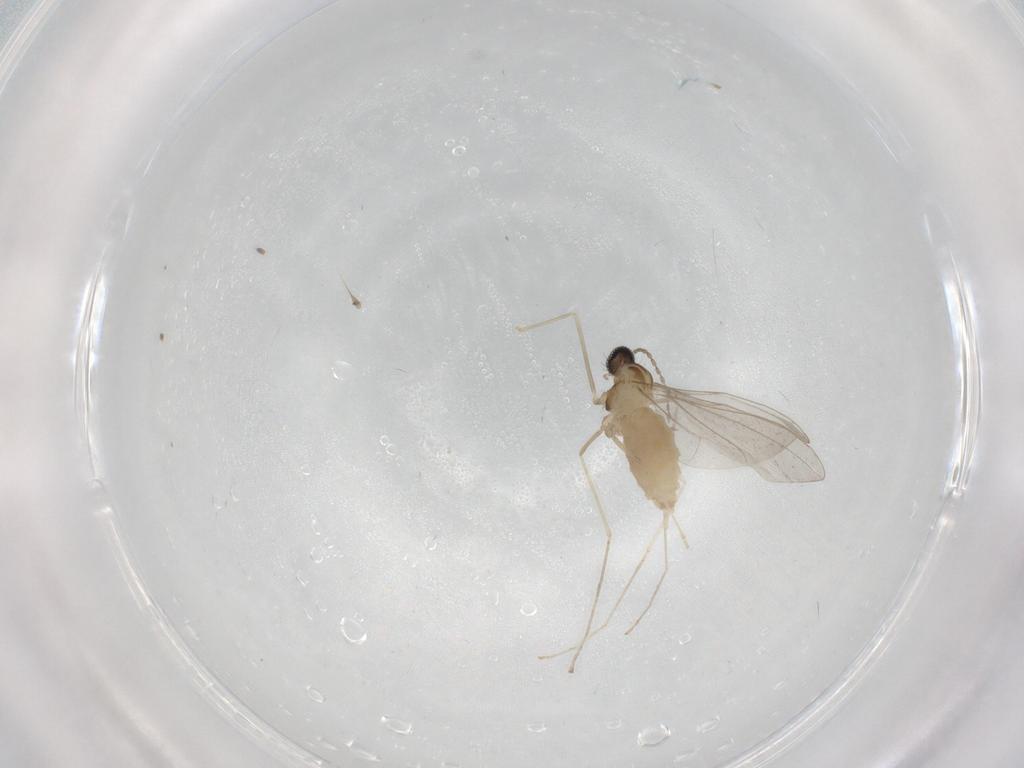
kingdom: Animalia
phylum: Arthropoda
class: Insecta
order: Diptera
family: Cecidomyiidae
